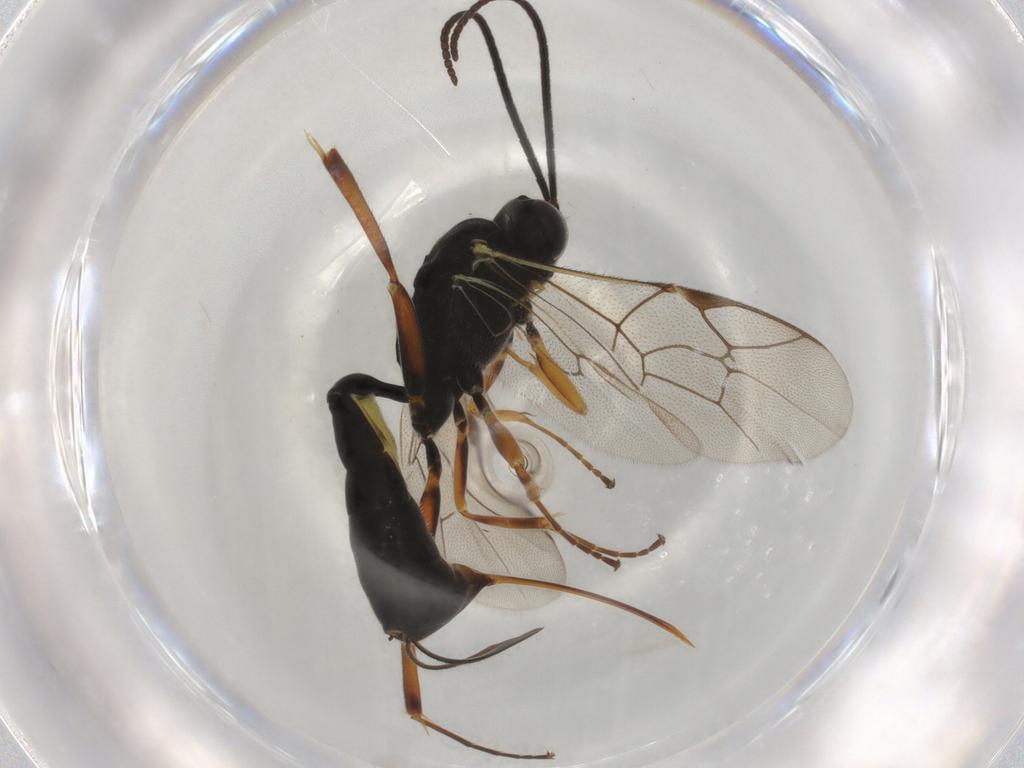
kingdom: Animalia
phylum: Arthropoda
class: Insecta
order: Hymenoptera
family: Ichneumonidae
